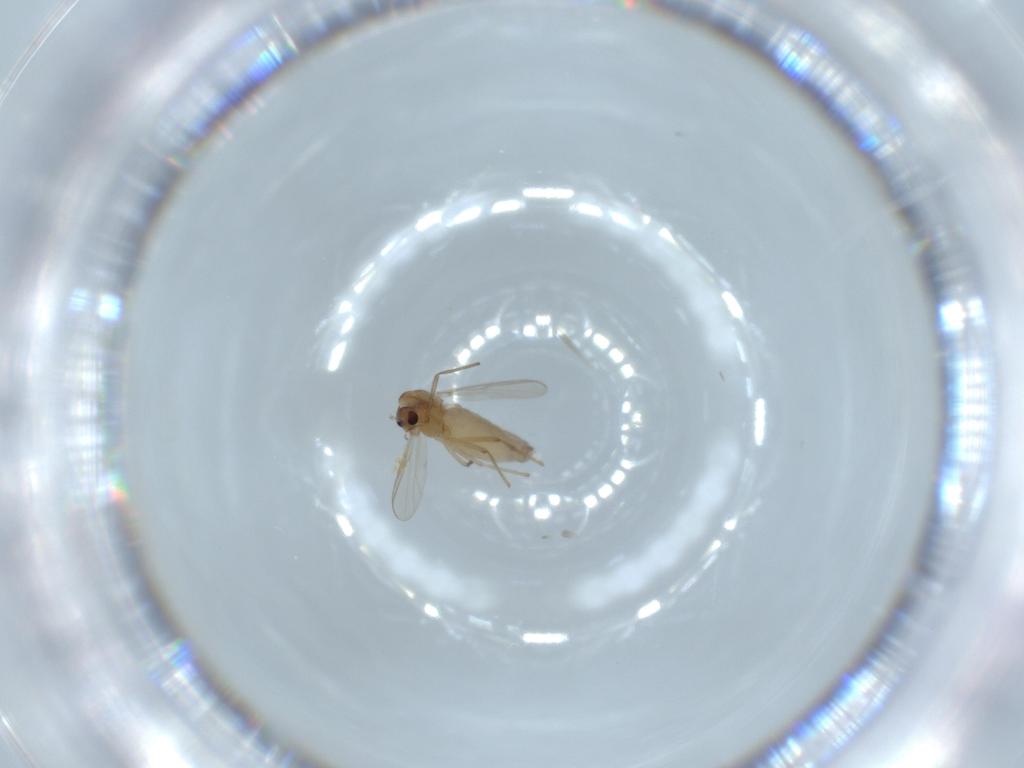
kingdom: Animalia
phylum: Arthropoda
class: Insecta
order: Diptera
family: Chironomidae
